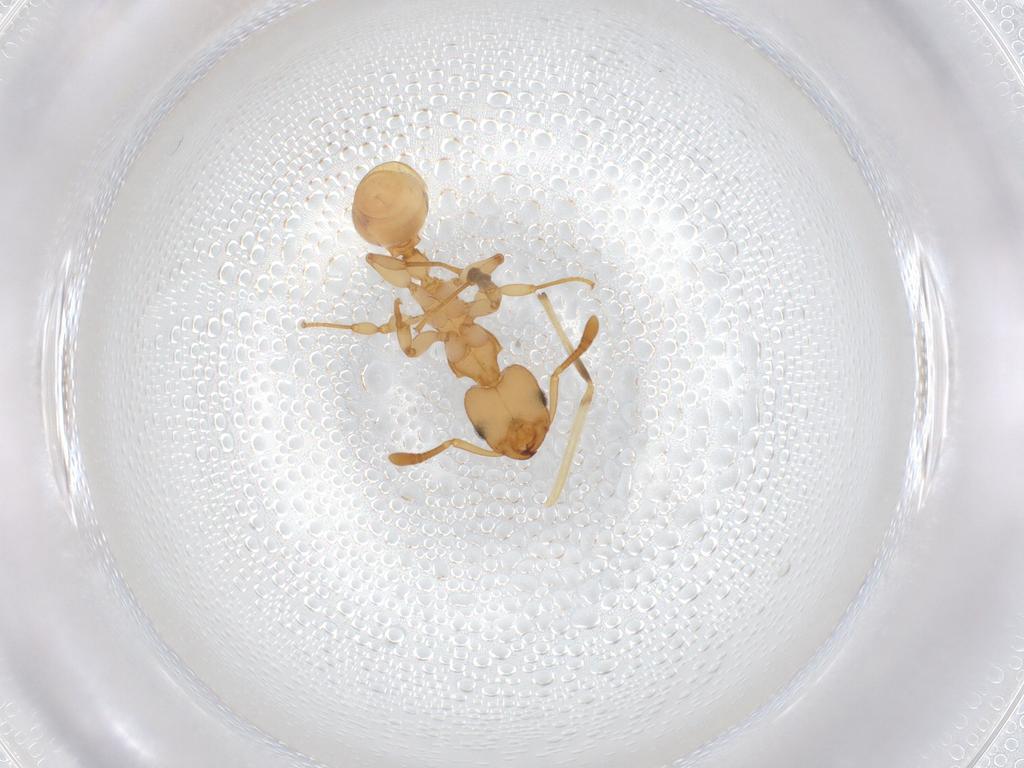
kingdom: Animalia
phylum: Arthropoda
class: Insecta
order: Hymenoptera
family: Formicidae
